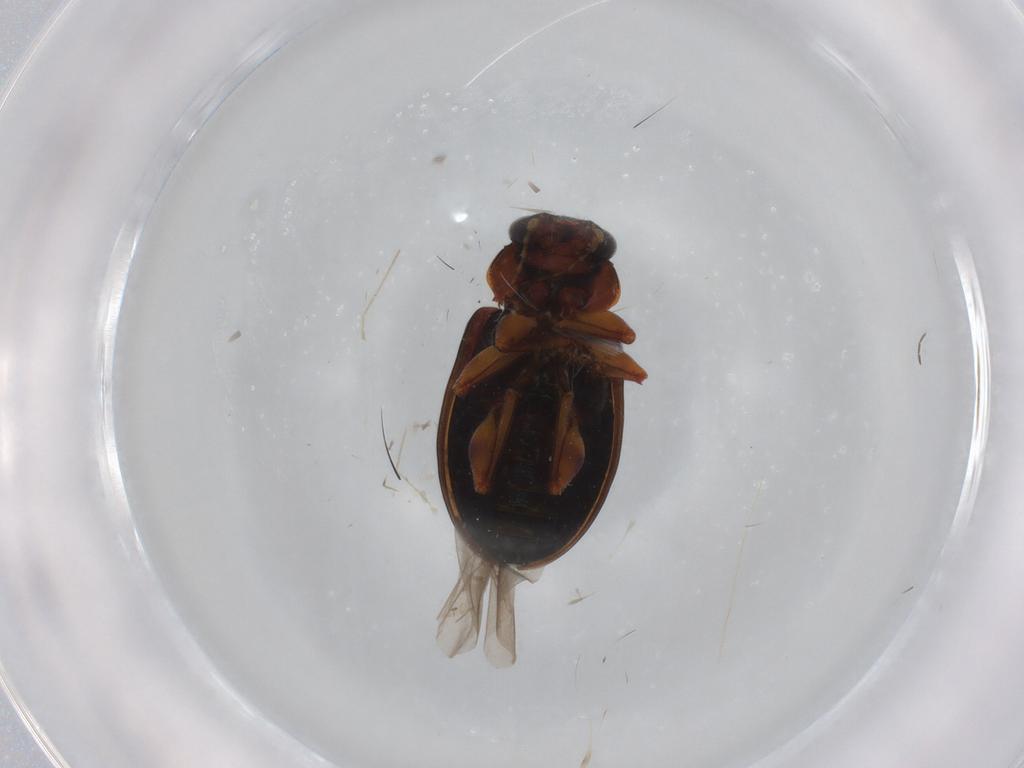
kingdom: Animalia
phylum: Arthropoda
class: Insecta
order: Coleoptera
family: Chrysomelidae
